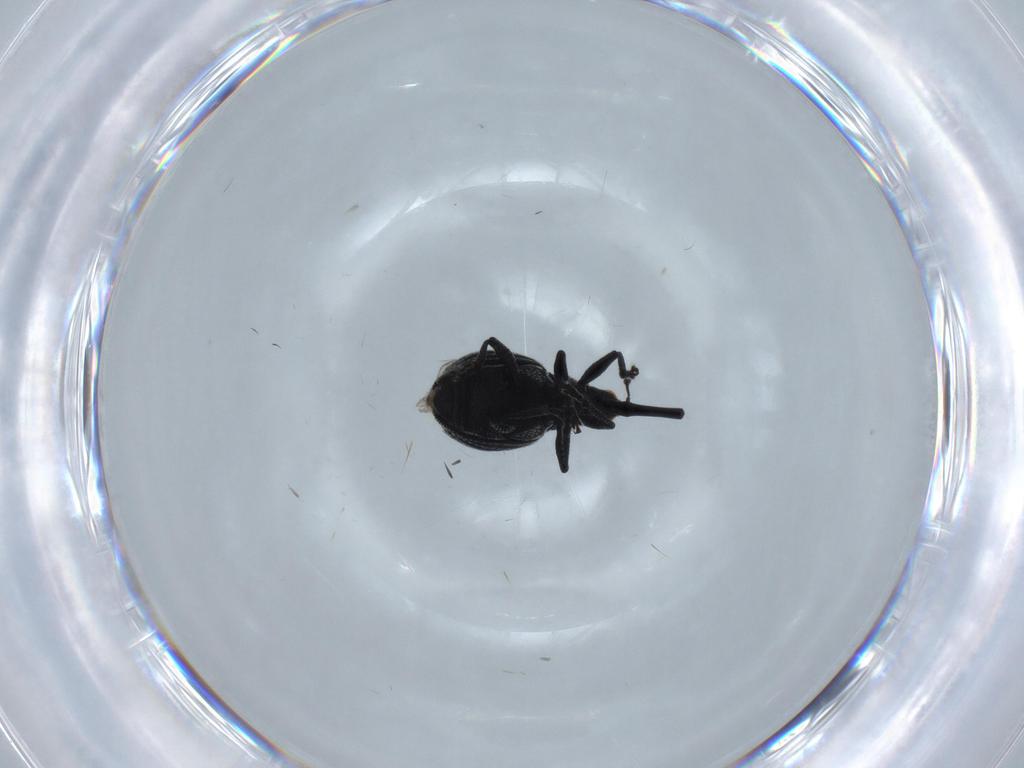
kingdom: Animalia
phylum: Arthropoda
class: Insecta
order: Coleoptera
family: Brentidae
